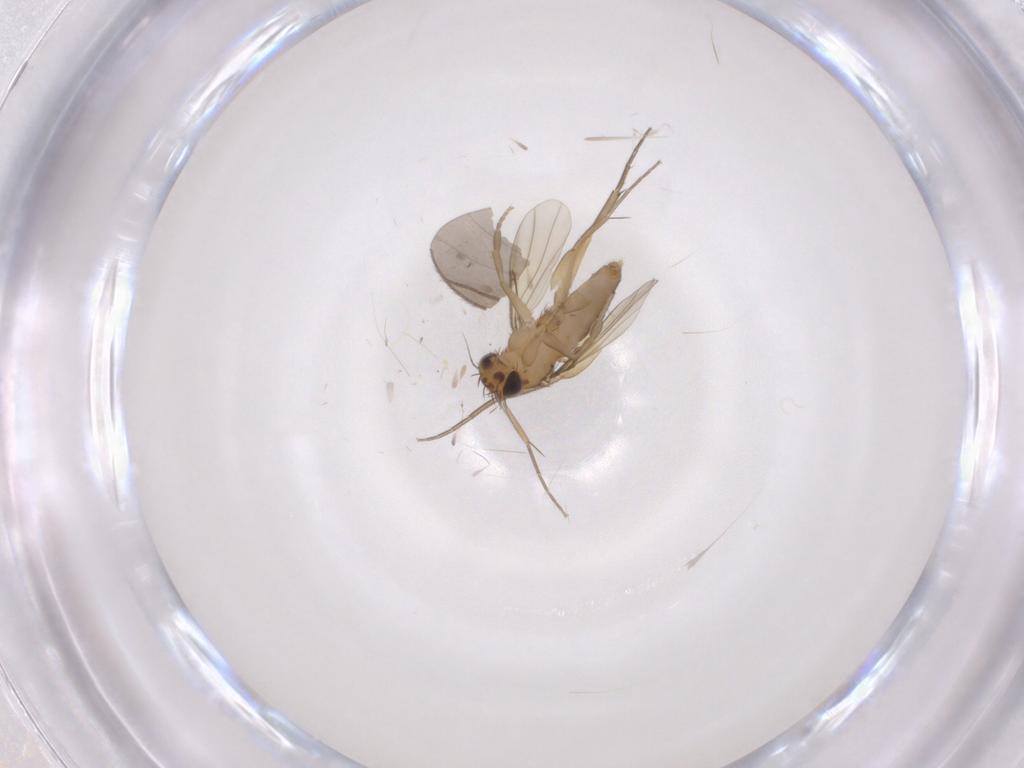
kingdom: Animalia
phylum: Arthropoda
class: Insecta
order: Diptera
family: Phoridae
